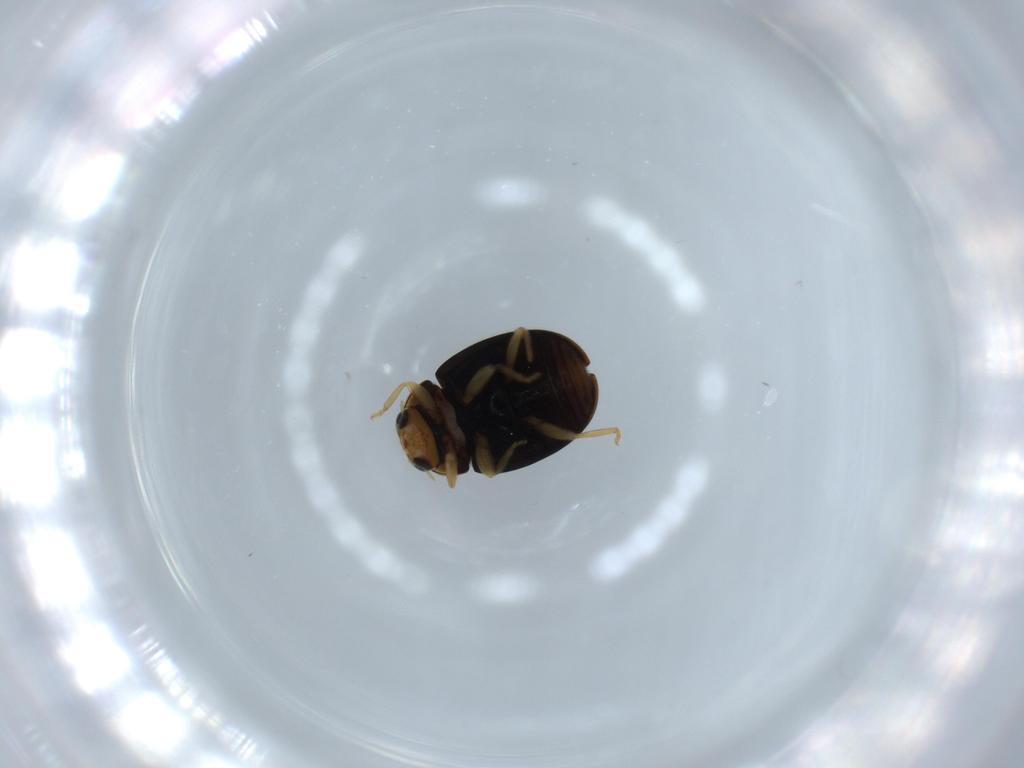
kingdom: Animalia
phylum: Arthropoda
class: Insecta
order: Coleoptera
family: Coccinellidae
